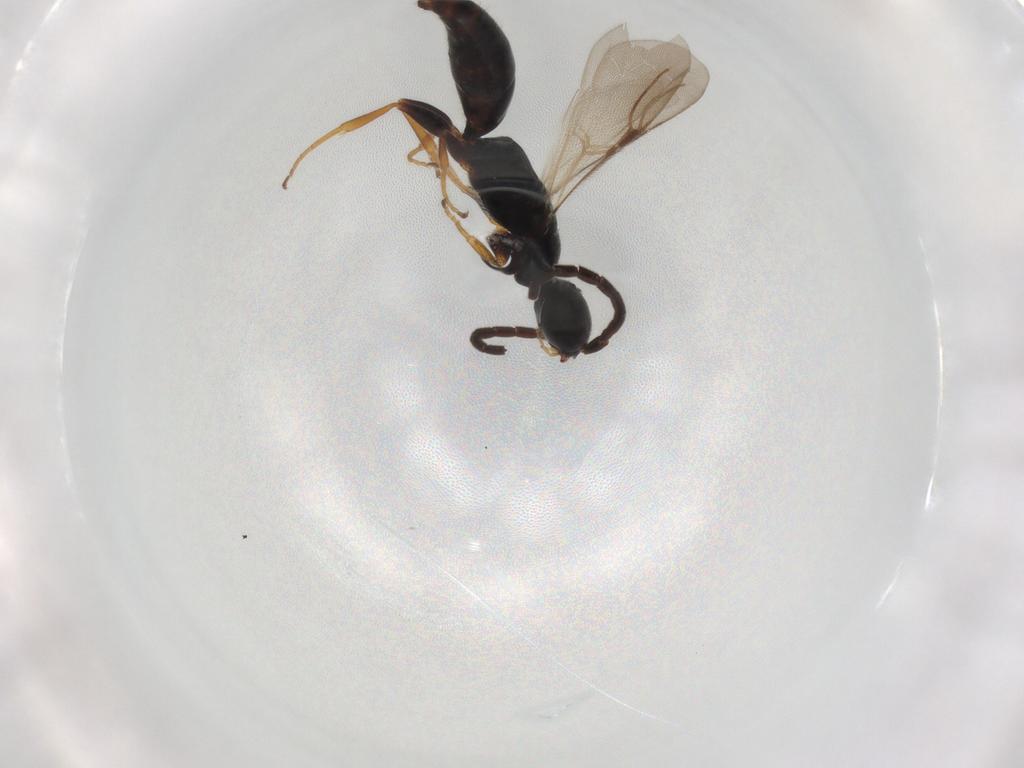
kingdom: Animalia
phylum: Arthropoda
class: Insecta
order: Hymenoptera
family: Bethylidae
